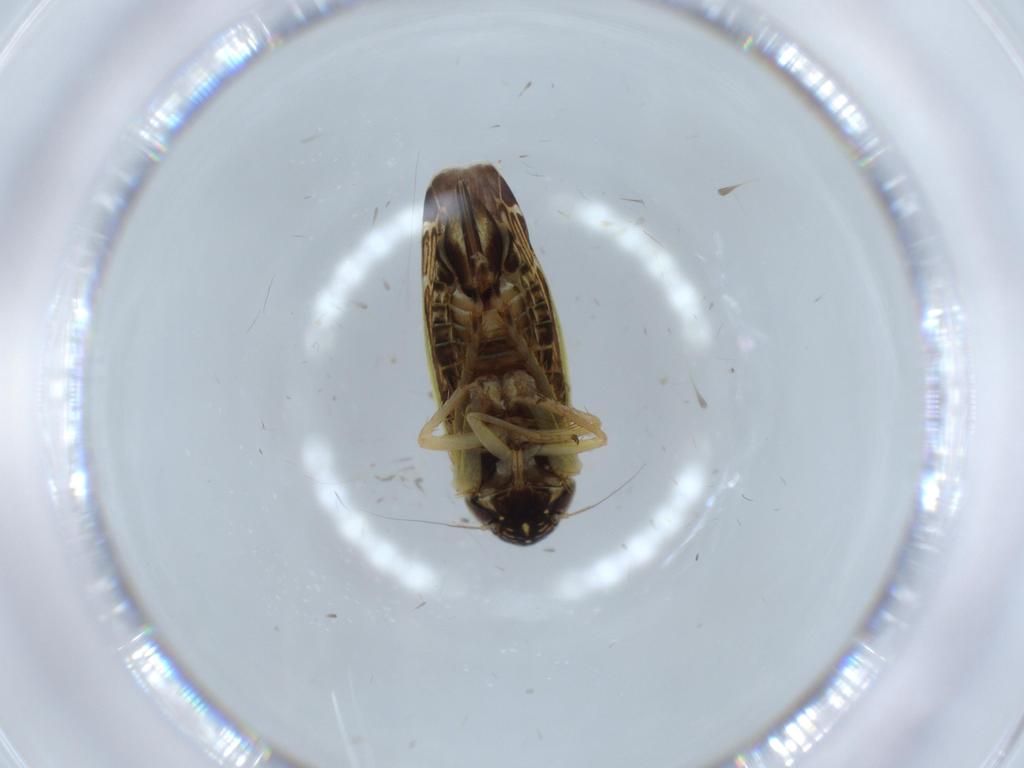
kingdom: Animalia
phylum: Arthropoda
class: Insecta
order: Hemiptera
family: Cicadellidae
